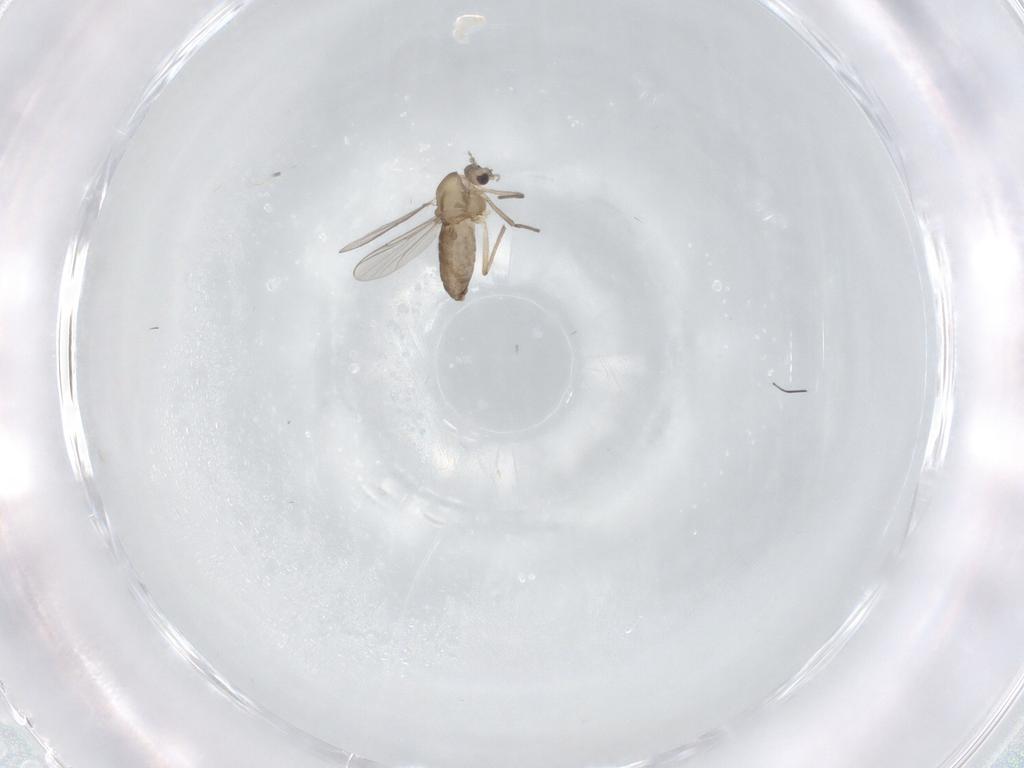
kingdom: Animalia
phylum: Arthropoda
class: Insecta
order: Diptera
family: Chironomidae
